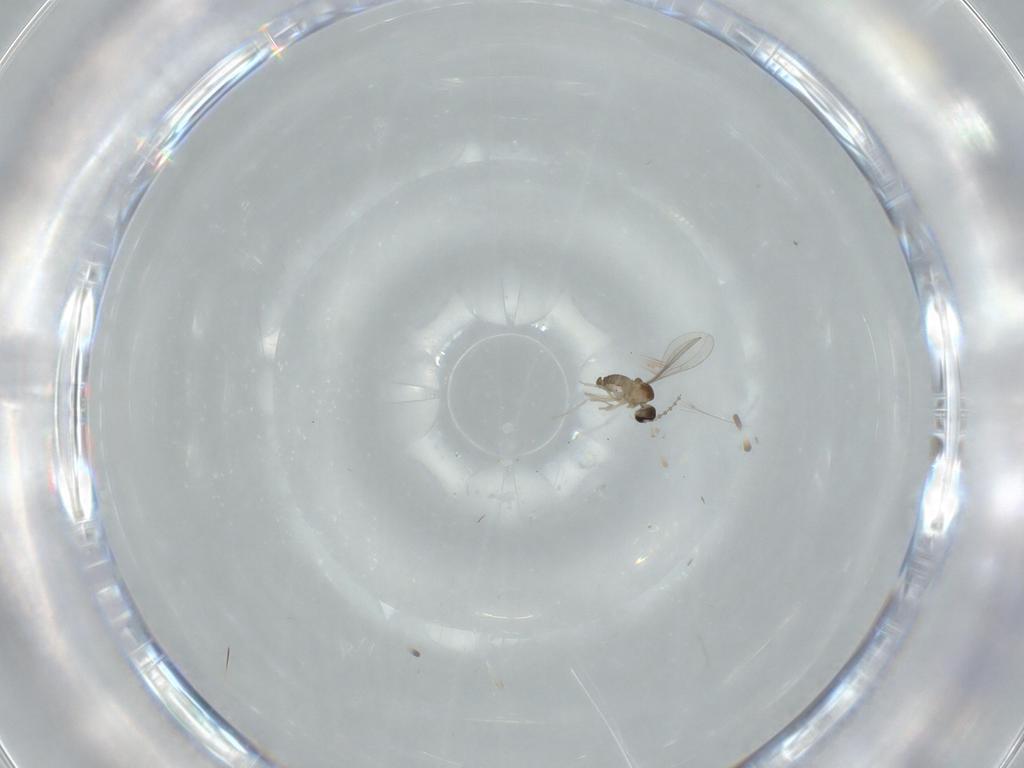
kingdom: Animalia
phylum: Arthropoda
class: Insecta
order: Diptera
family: Cecidomyiidae
